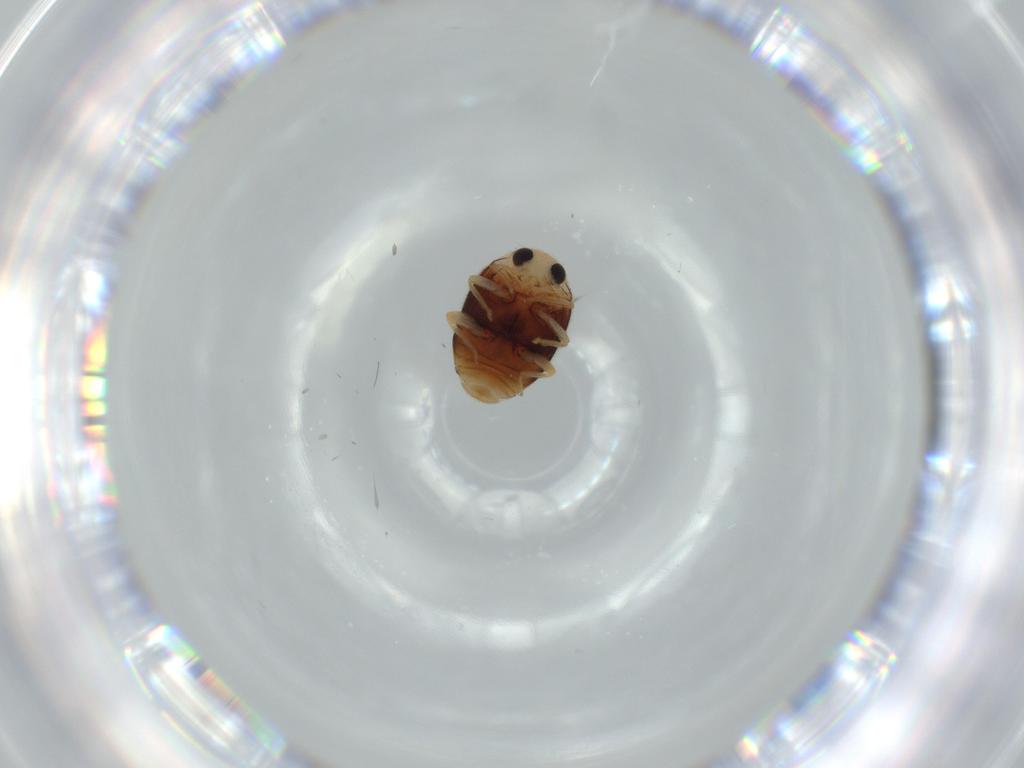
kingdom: Animalia
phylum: Arthropoda
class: Insecta
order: Coleoptera
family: Coccinellidae
